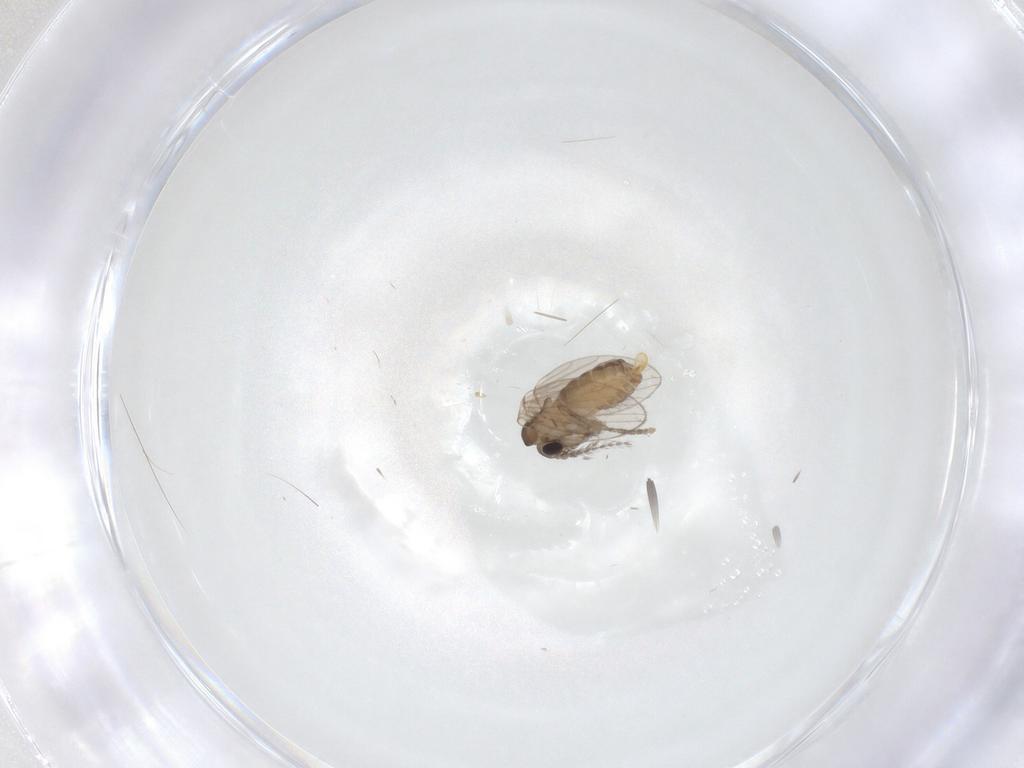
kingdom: Animalia
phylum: Arthropoda
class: Insecta
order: Diptera
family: Psychodidae
